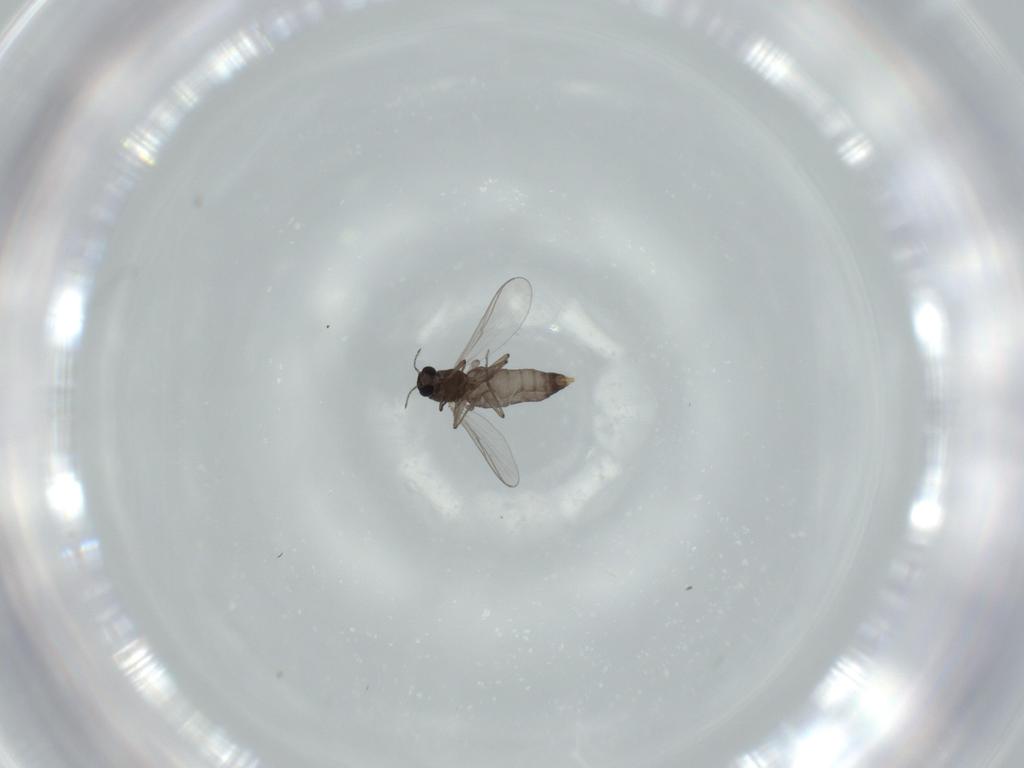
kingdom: Animalia
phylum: Arthropoda
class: Insecta
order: Diptera
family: Chironomidae
